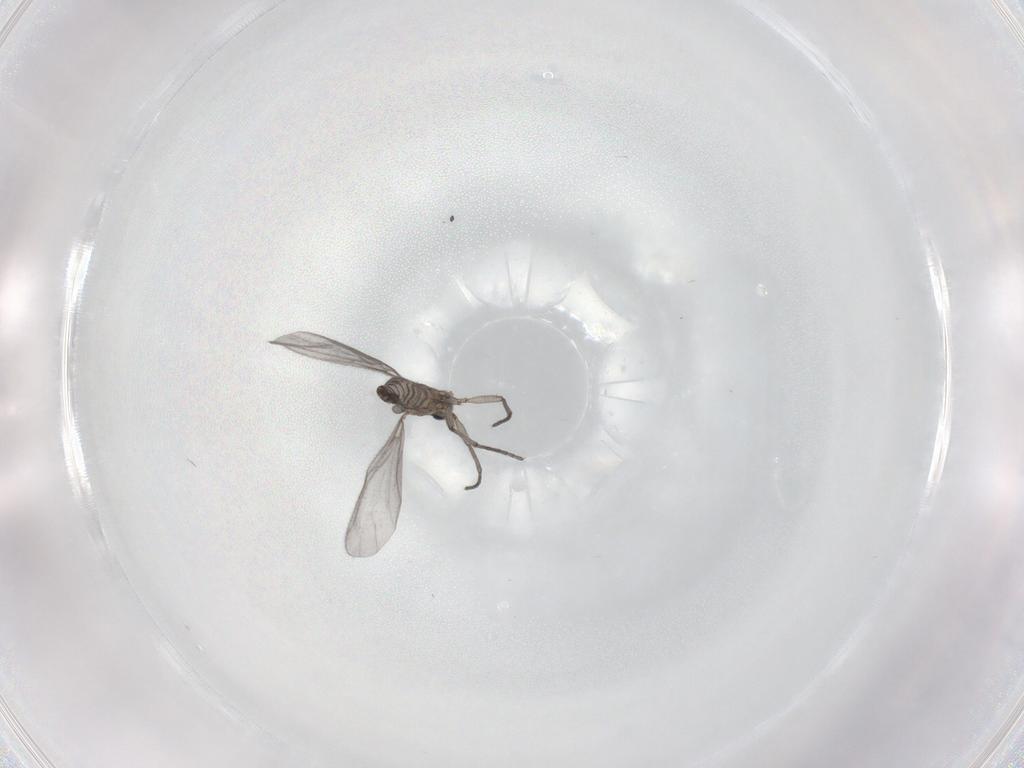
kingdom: Animalia
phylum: Arthropoda
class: Insecta
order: Diptera
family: Sciaridae
